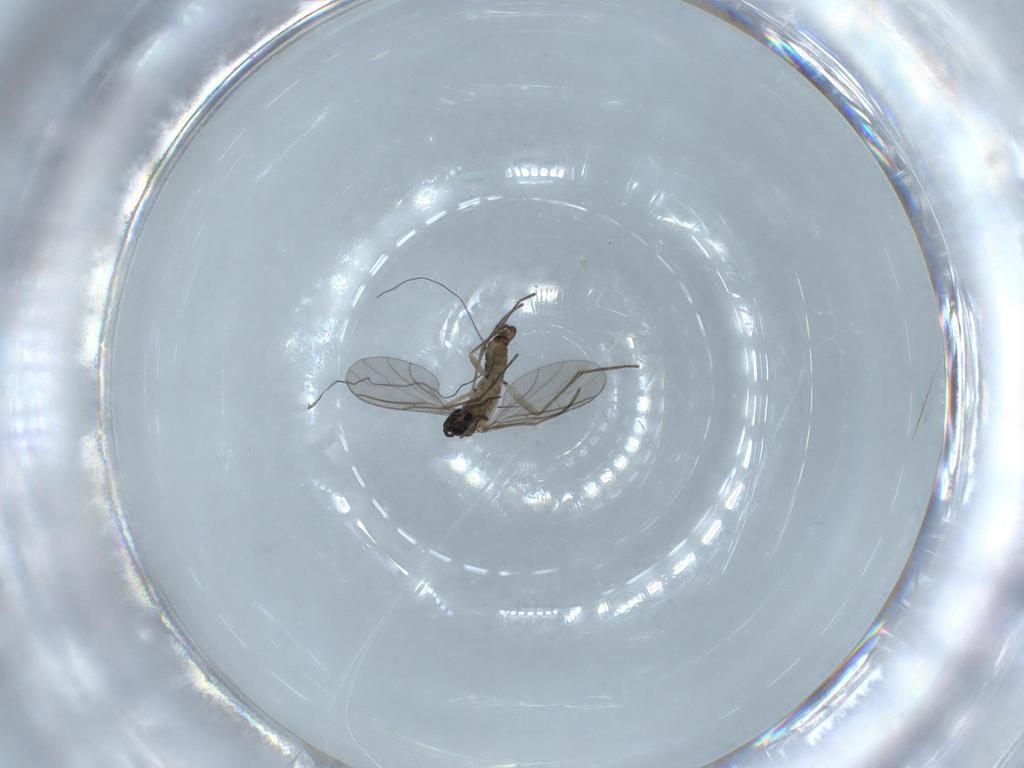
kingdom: Animalia
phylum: Arthropoda
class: Insecta
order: Diptera
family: Sciaridae
